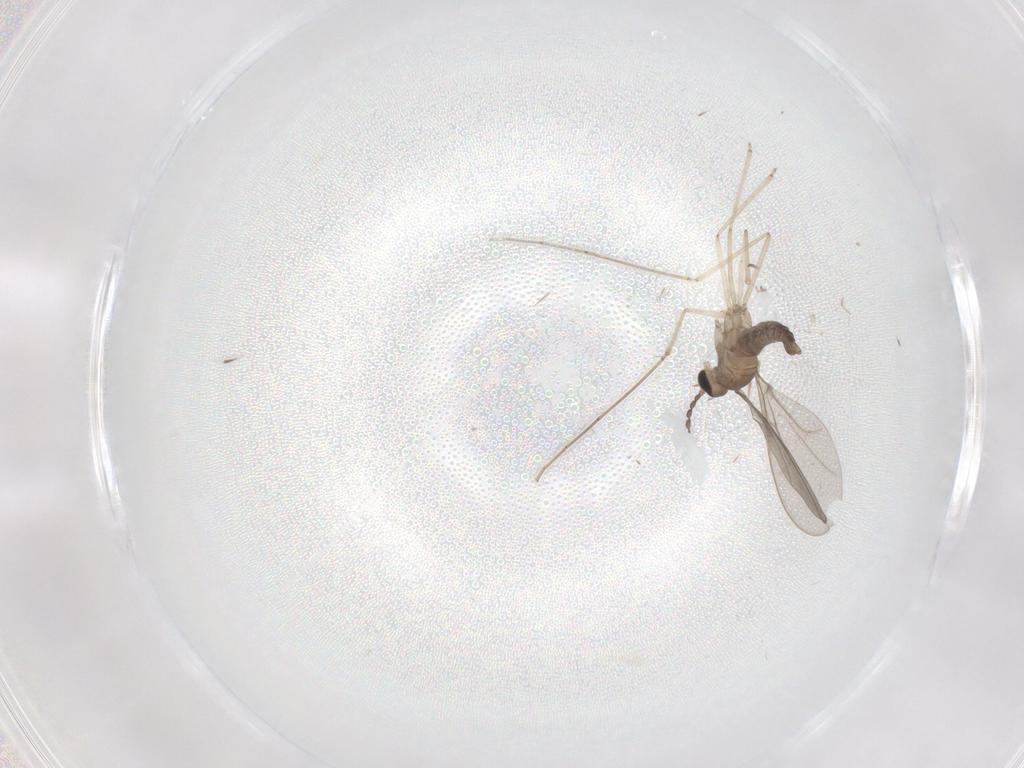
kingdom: Animalia
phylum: Arthropoda
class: Insecta
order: Diptera
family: Cecidomyiidae
